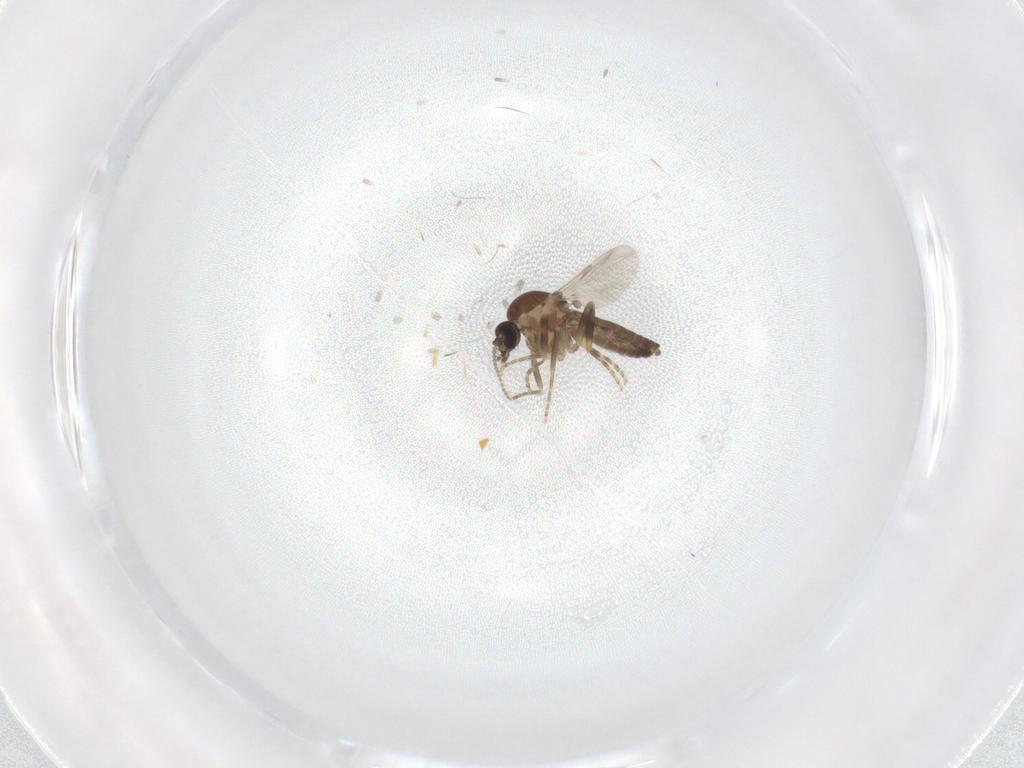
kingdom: Animalia
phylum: Arthropoda
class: Insecta
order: Diptera
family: Ceratopogonidae
